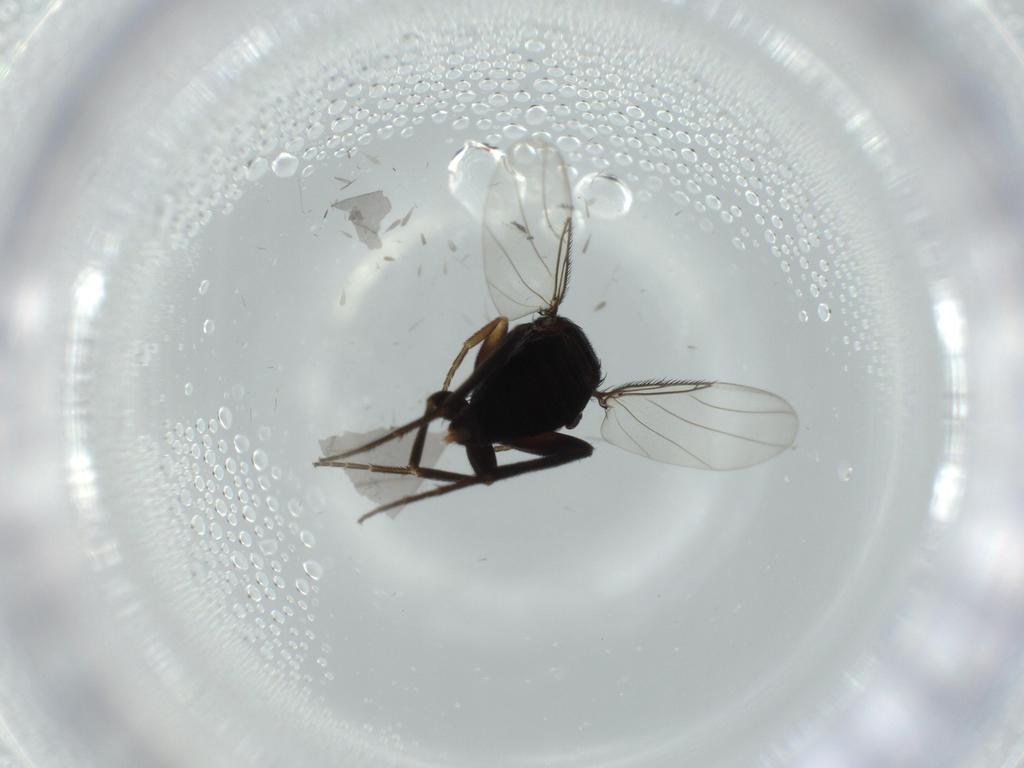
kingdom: Animalia
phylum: Arthropoda
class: Insecta
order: Diptera
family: Phoridae
